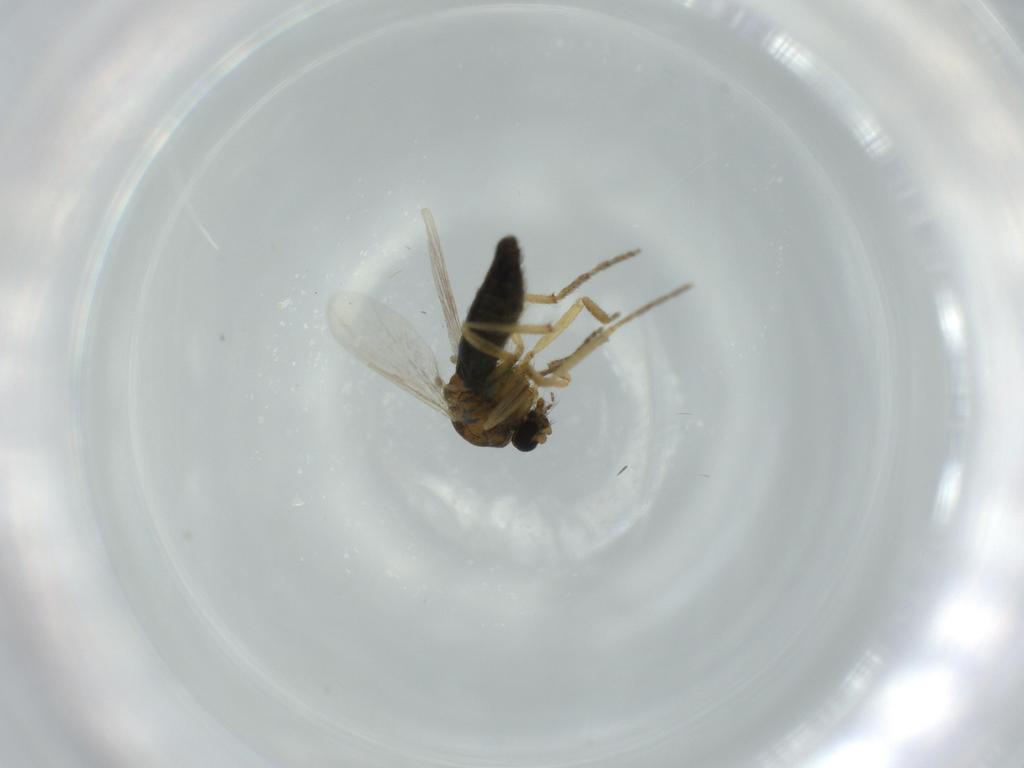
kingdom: Animalia
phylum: Arthropoda
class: Insecta
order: Diptera
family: Ceratopogonidae
